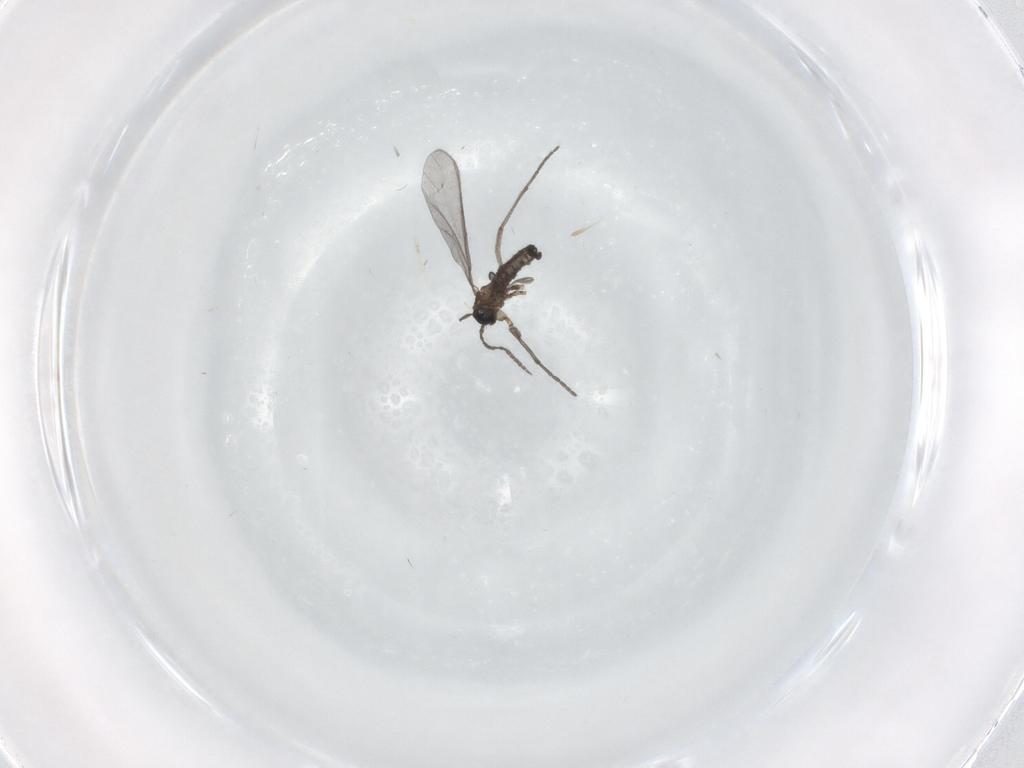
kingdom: Animalia
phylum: Arthropoda
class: Insecta
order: Diptera
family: Sciaridae
